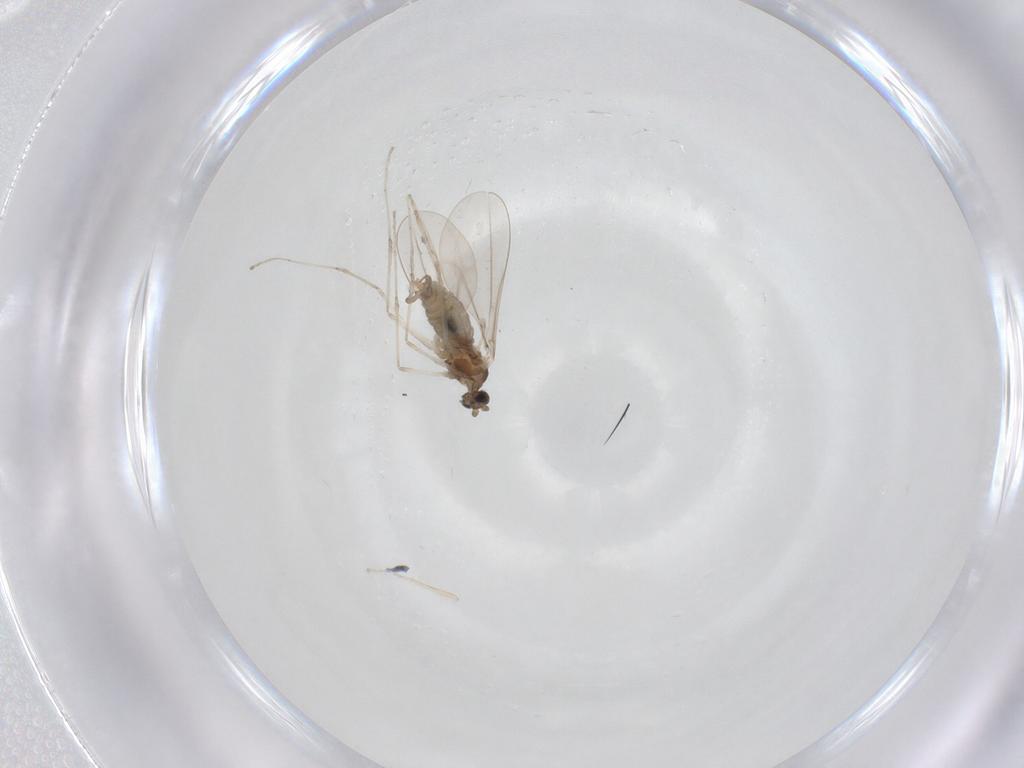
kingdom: Animalia
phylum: Arthropoda
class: Insecta
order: Diptera
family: Cecidomyiidae
